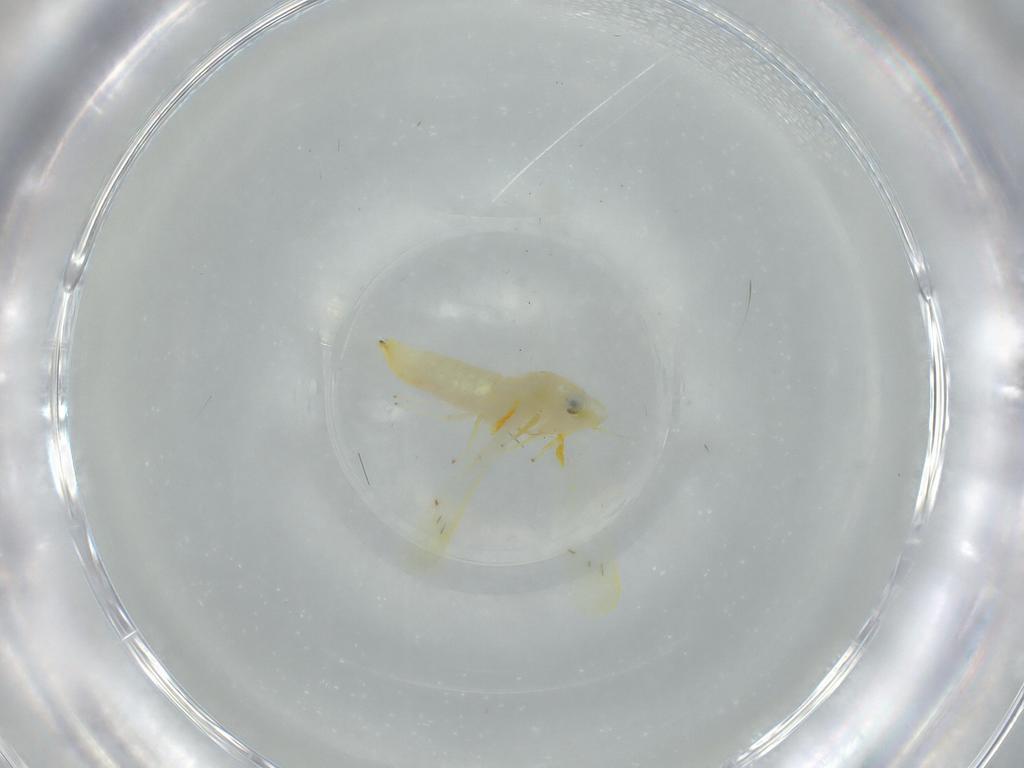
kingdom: Animalia
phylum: Arthropoda
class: Insecta
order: Hemiptera
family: Cicadellidae
